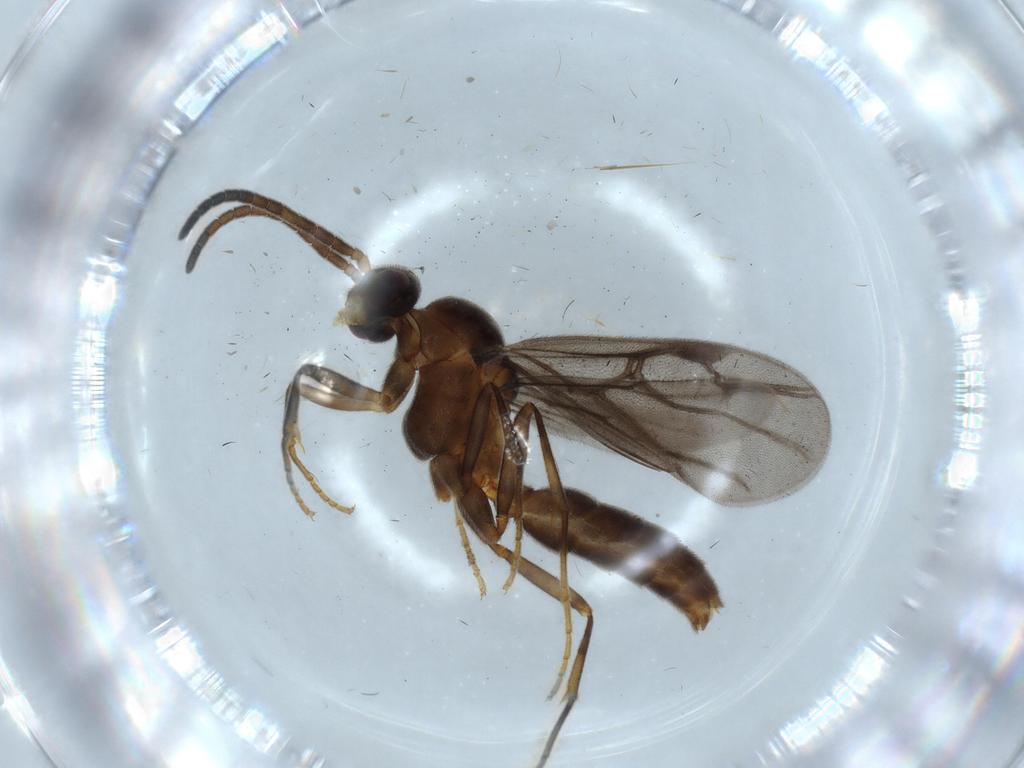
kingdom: Animalia
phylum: Arthropoda
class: Insecta
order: Hymenoptera
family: Formicidae
